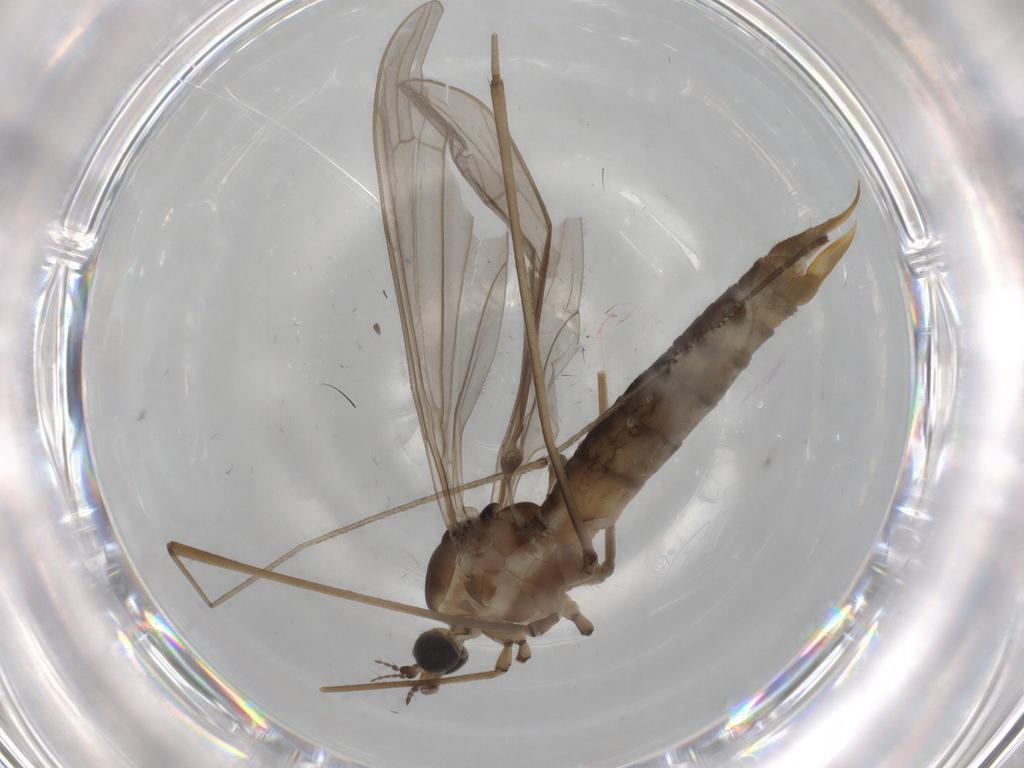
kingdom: Animalia
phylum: Arthropoda
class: Insecta
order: Diptera
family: Limoniidae
